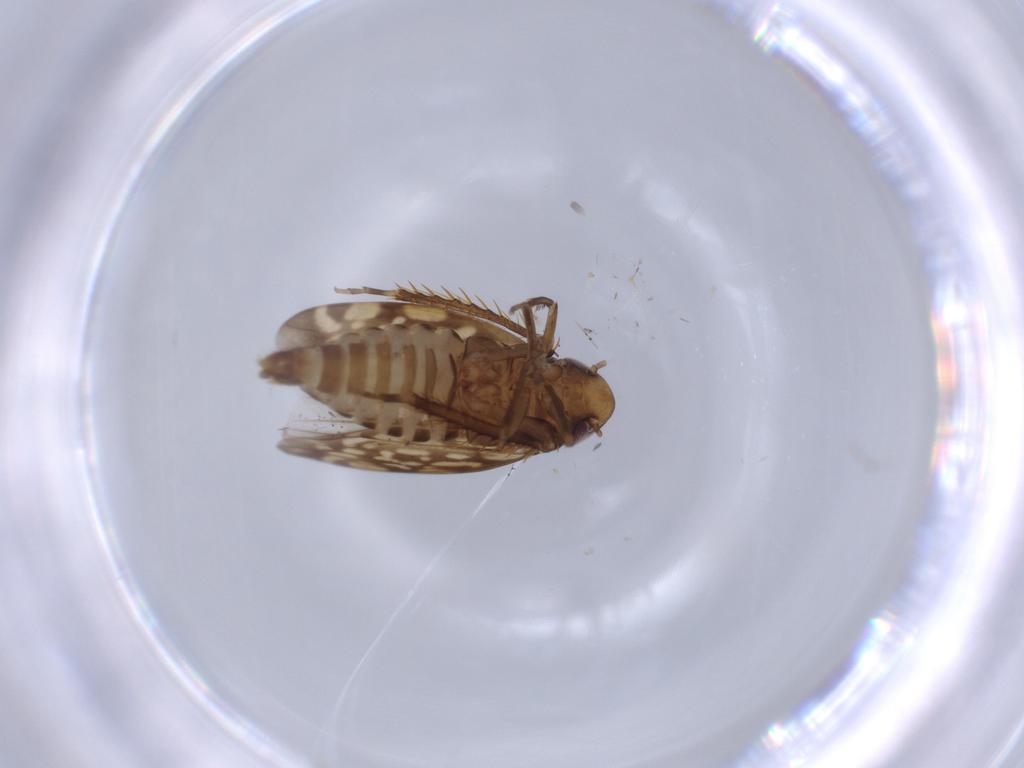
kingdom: Animalia
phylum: Arthropoda
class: Insecta
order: Hemiptera
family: Cicadellidae
